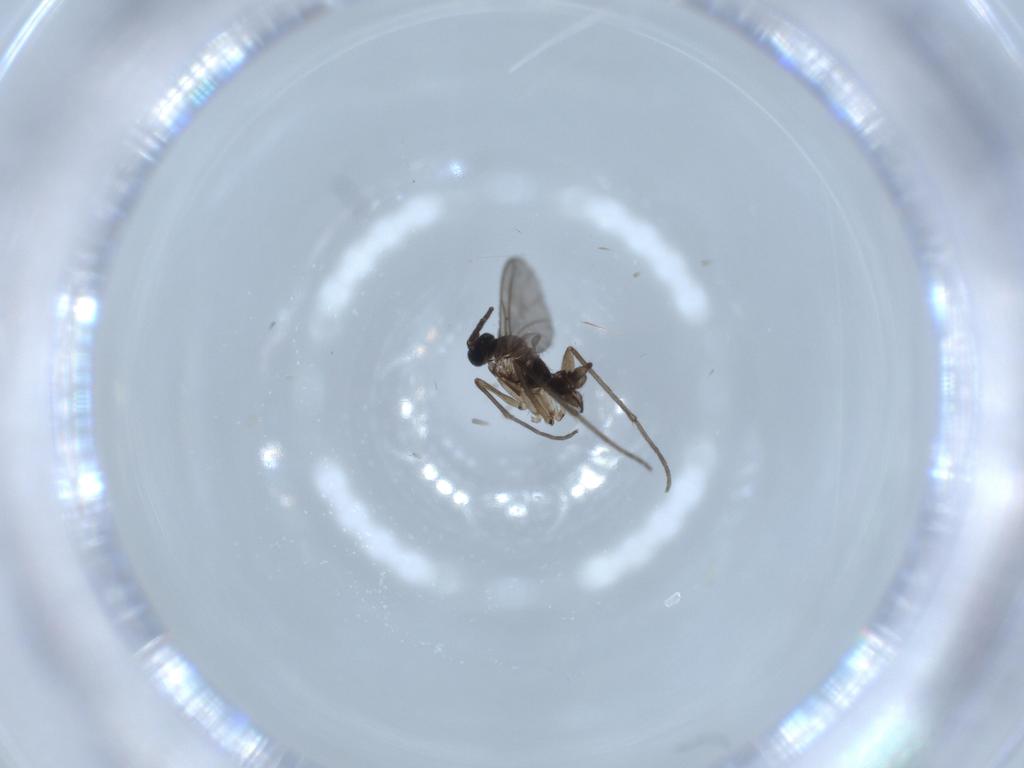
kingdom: Animalia
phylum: Arthropoda
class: Insecta
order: Diptera
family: Sciaridae
